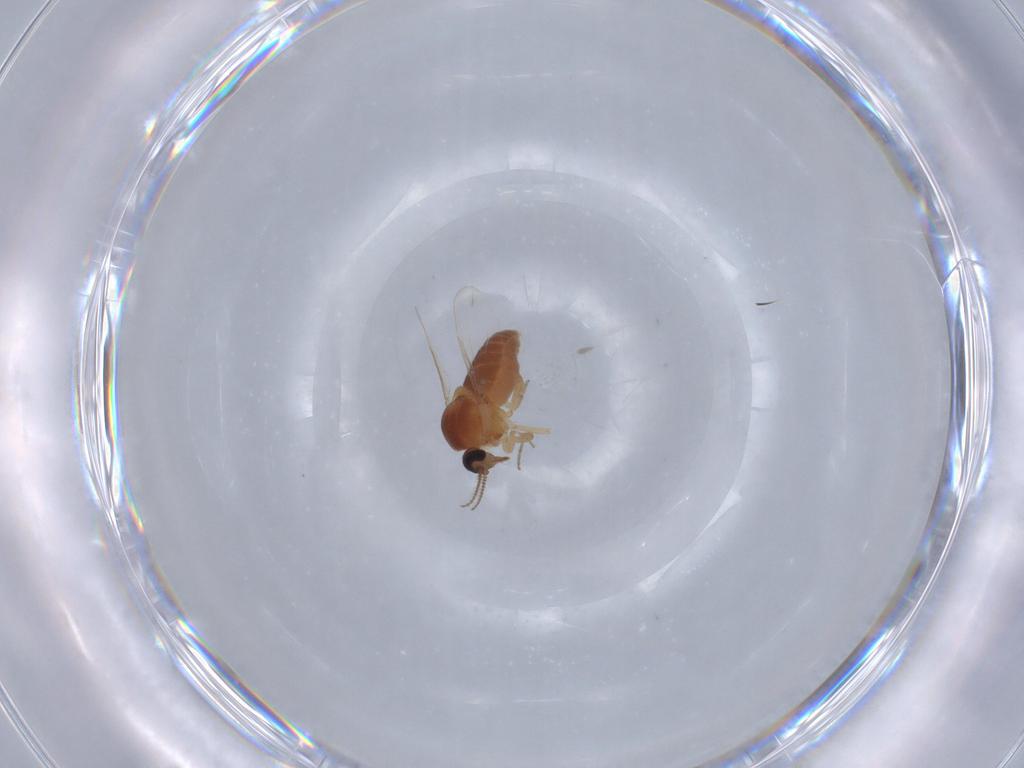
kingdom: Animalia
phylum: Arthropoda
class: Insecta
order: Diptera
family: Ceratopogonidae
